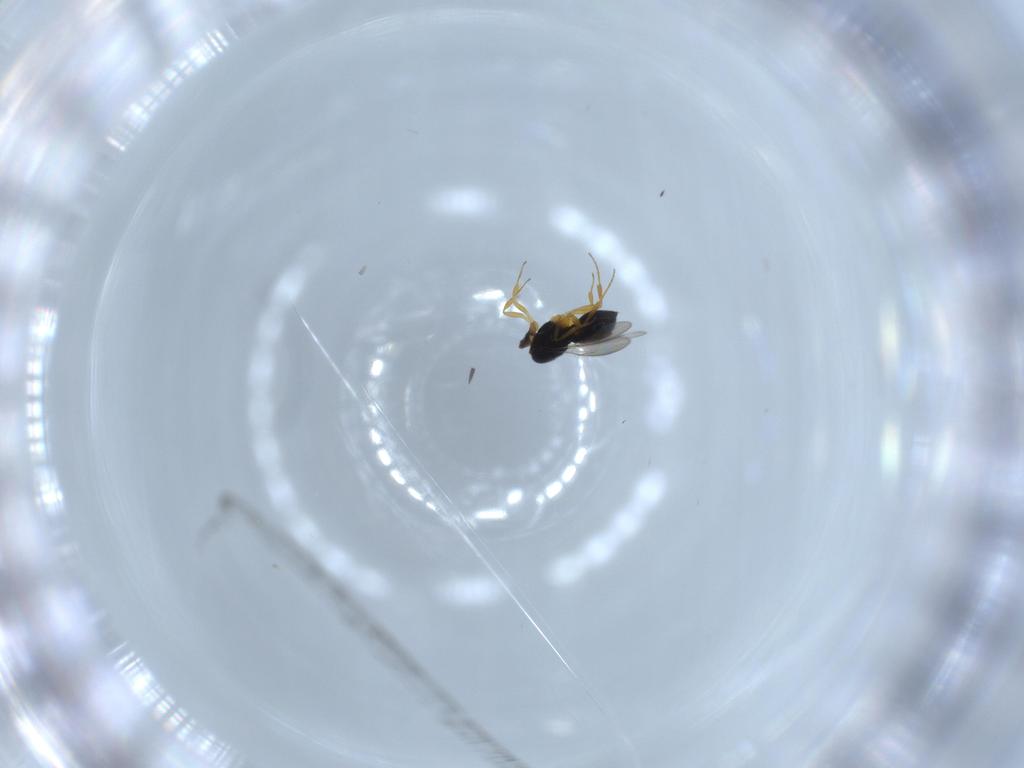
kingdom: Animalia
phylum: Arthropoda
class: Insecta
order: Hymenoptera
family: Scelionidae
